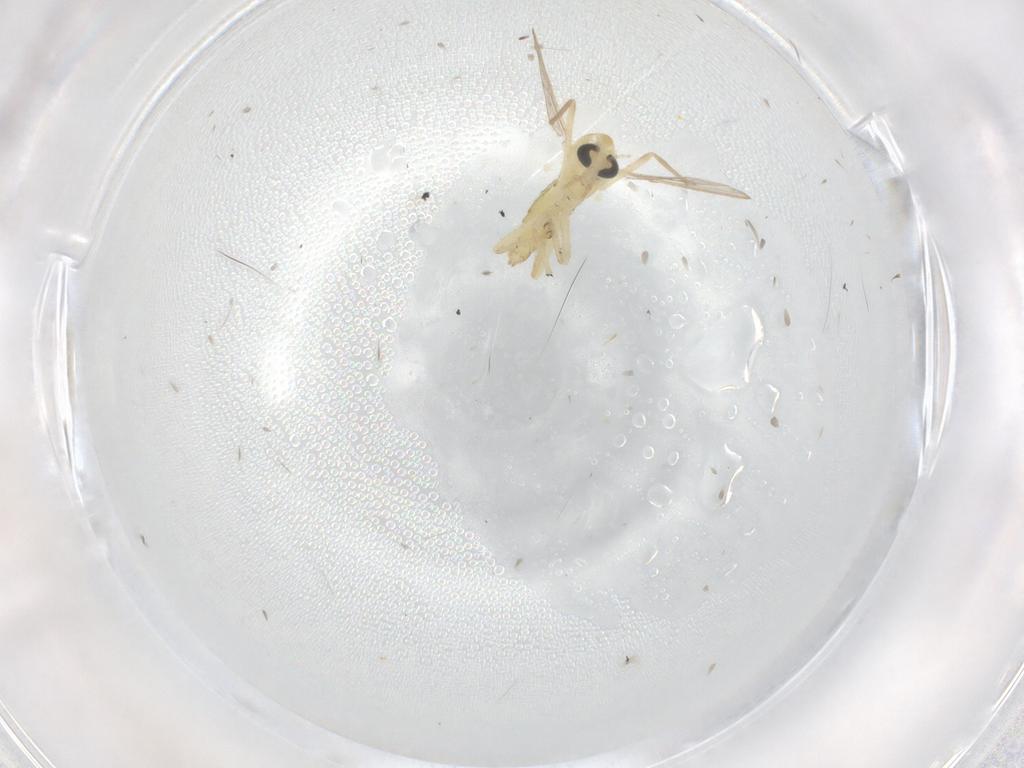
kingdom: Animalia
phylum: Arthropoda
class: Insecta
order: Diptera
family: Chironomidae
